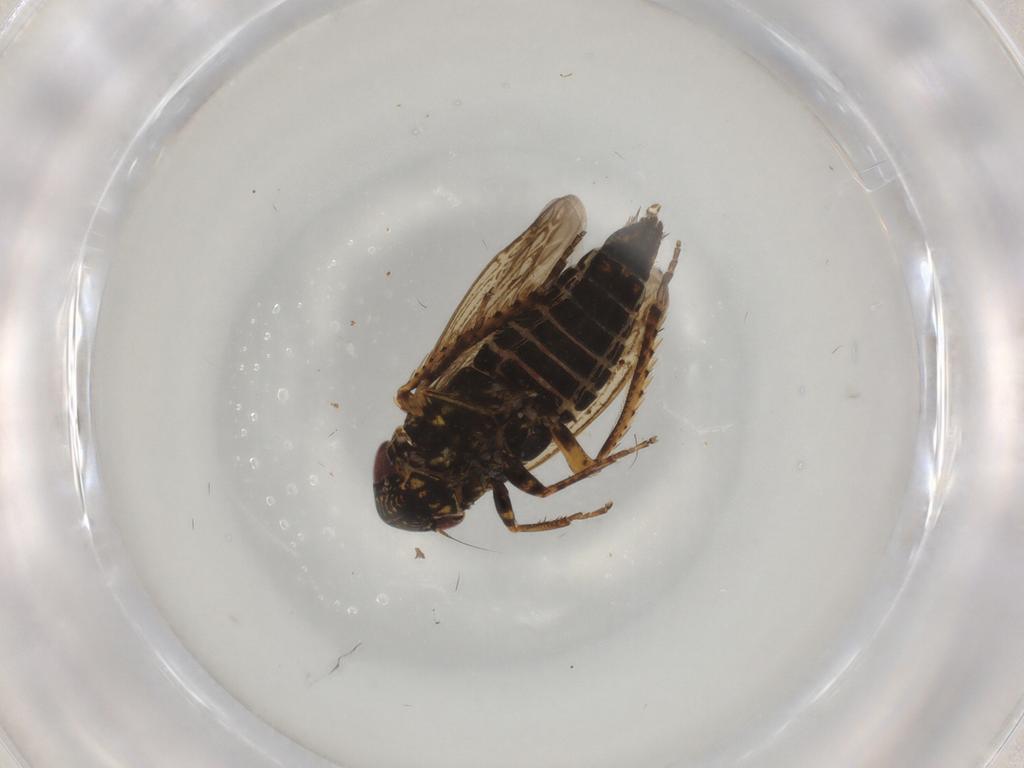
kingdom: Animalia
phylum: Arthropoda
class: Insecta
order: Hemiptera
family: Cicadellidae
